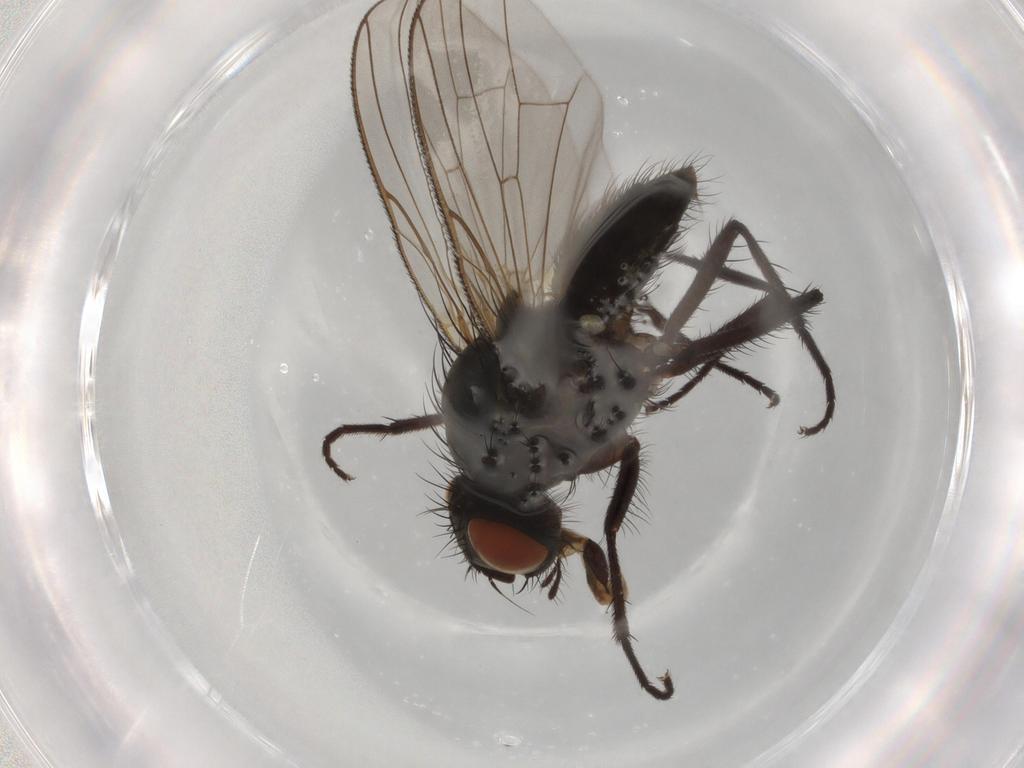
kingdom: Animalia
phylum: Arthropoda
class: Insecta
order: Diptera
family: Anthomyiidae
